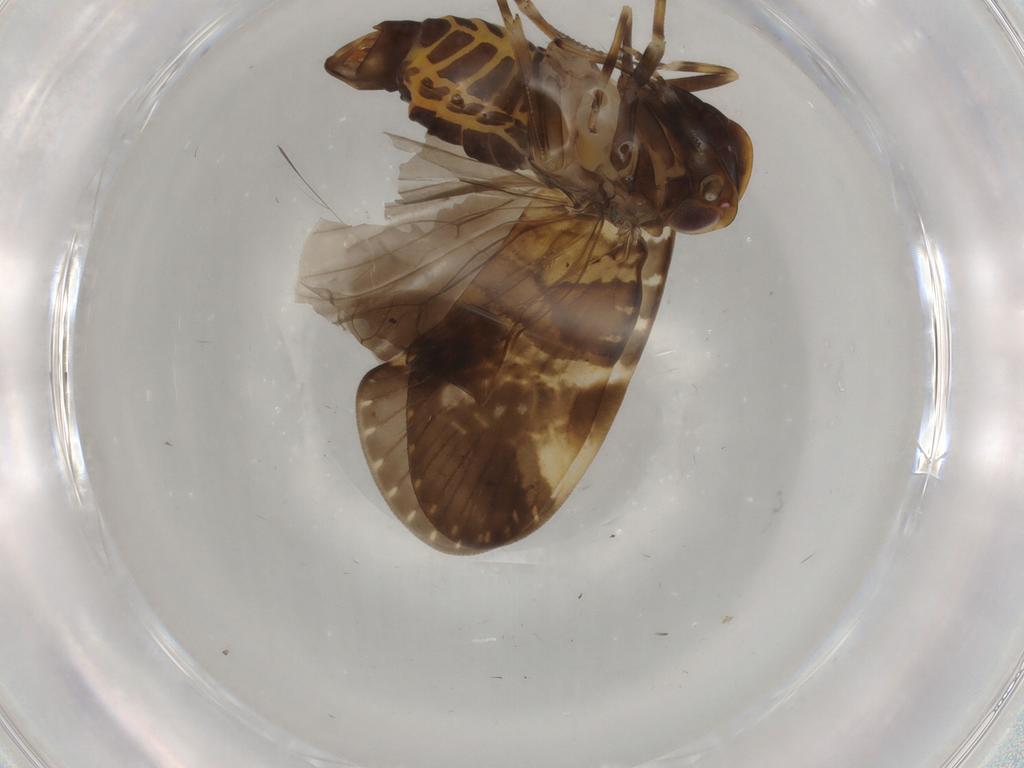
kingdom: Animalia
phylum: Arthropoda
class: Insecta
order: Hemiptera
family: Cixiidae
